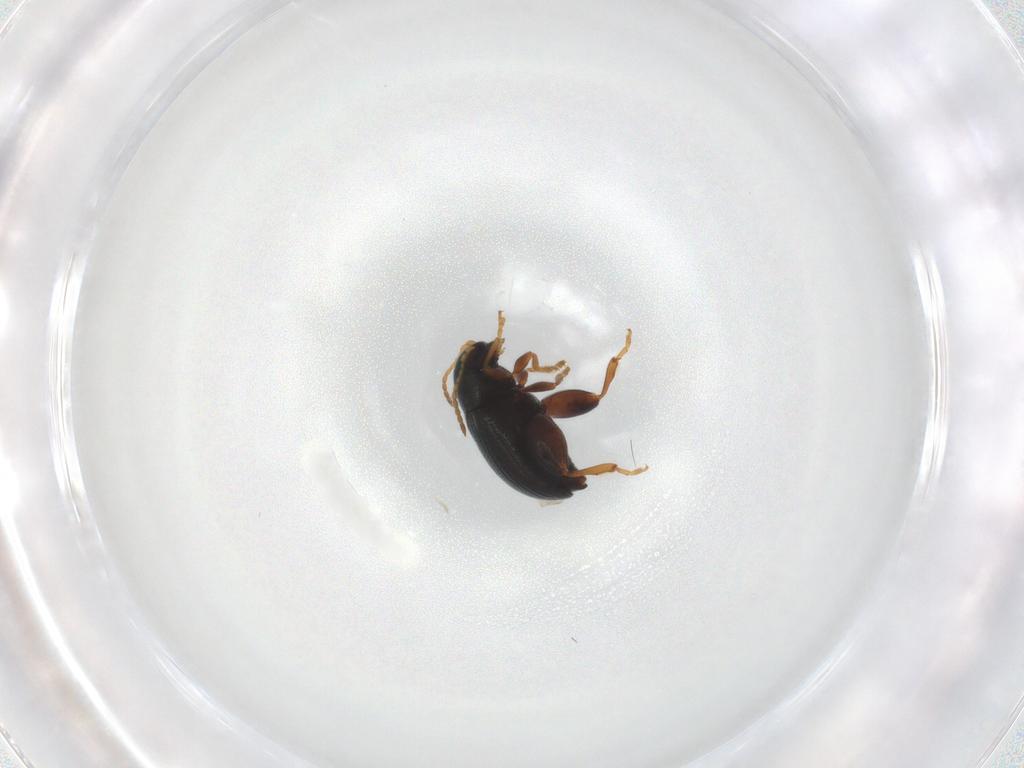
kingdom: Animalia
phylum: Arthropoda
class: Insecta
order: Coleoptera
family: Chrysomelidae
